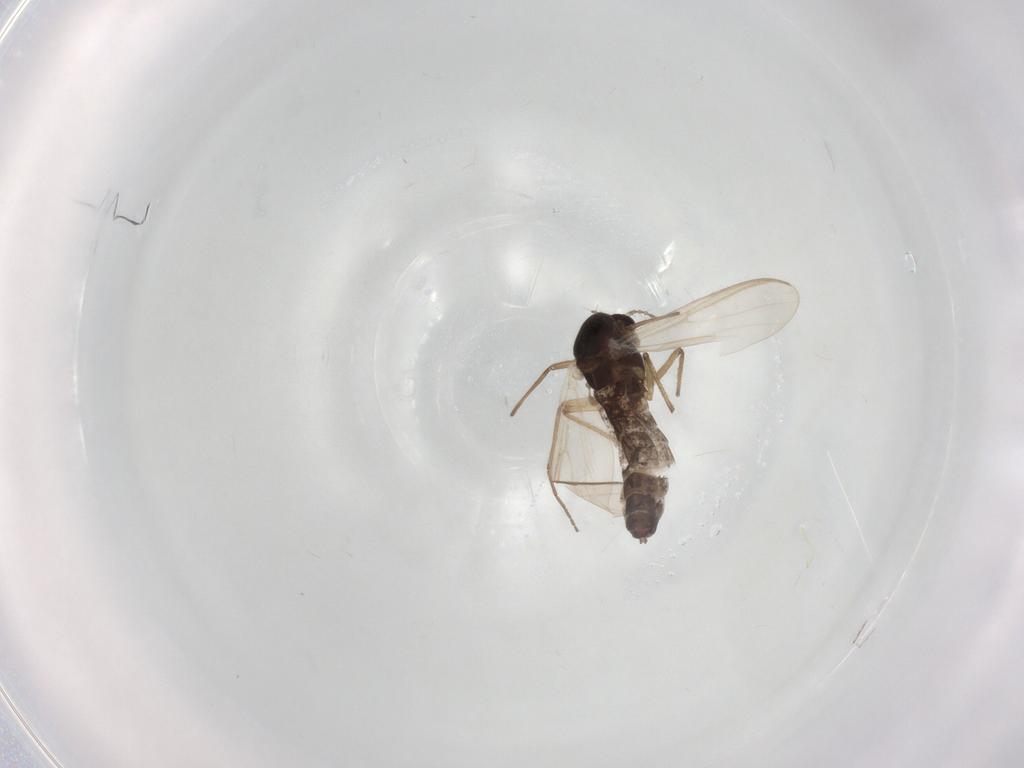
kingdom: Animalia
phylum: Arthropoda
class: Insecta
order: Diptera
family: Chironomidae
